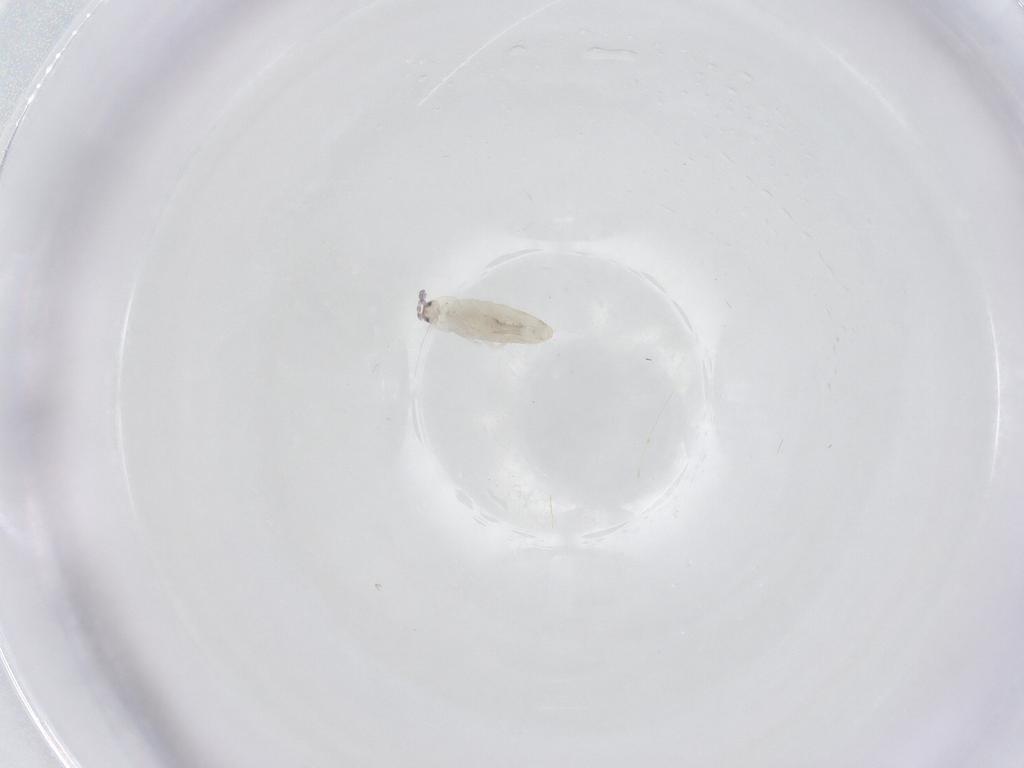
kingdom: Animalia
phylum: Arthropoda
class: Collembola
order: Entomobryomorpha
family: Entomobryidae
